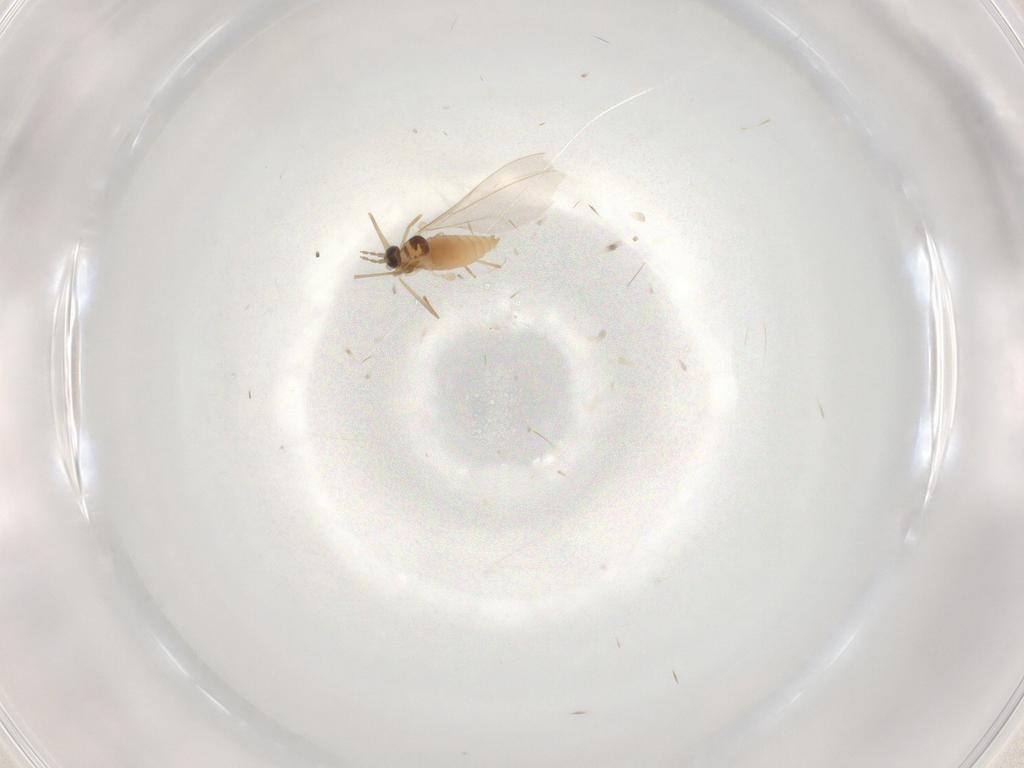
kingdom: Animalia
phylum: Arthropoda
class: Insecta
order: Diptera
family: Cecidomyiidae
